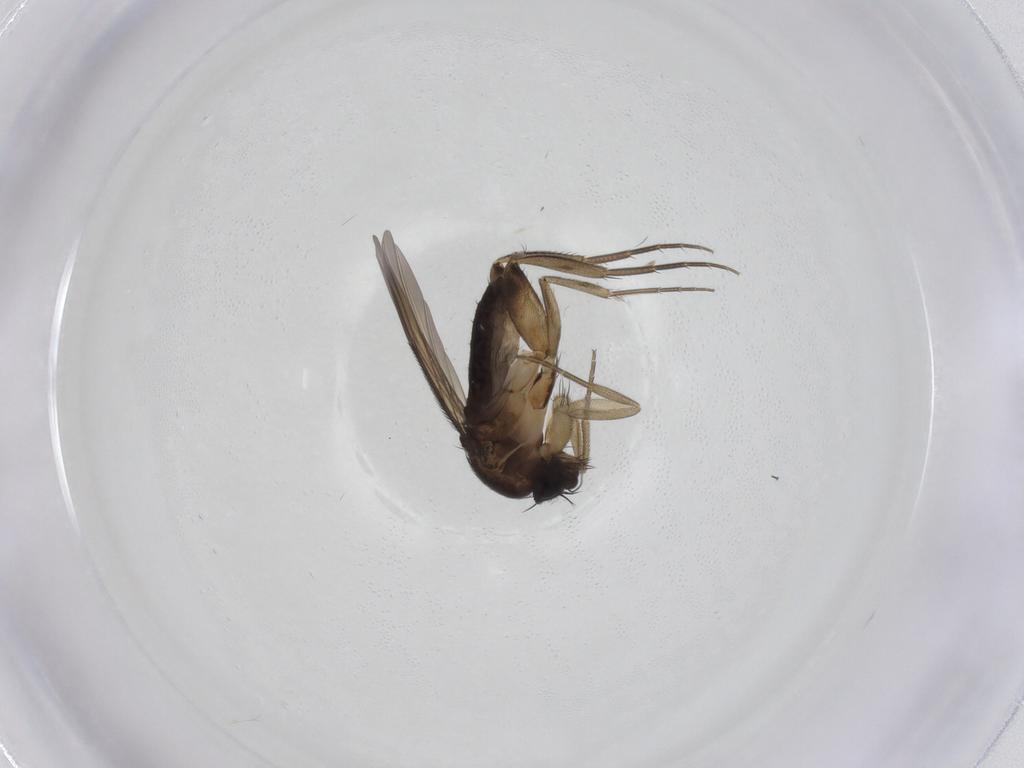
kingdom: Animalia
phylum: Arthropoda
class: Insecta
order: Diptera
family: Phoridae
